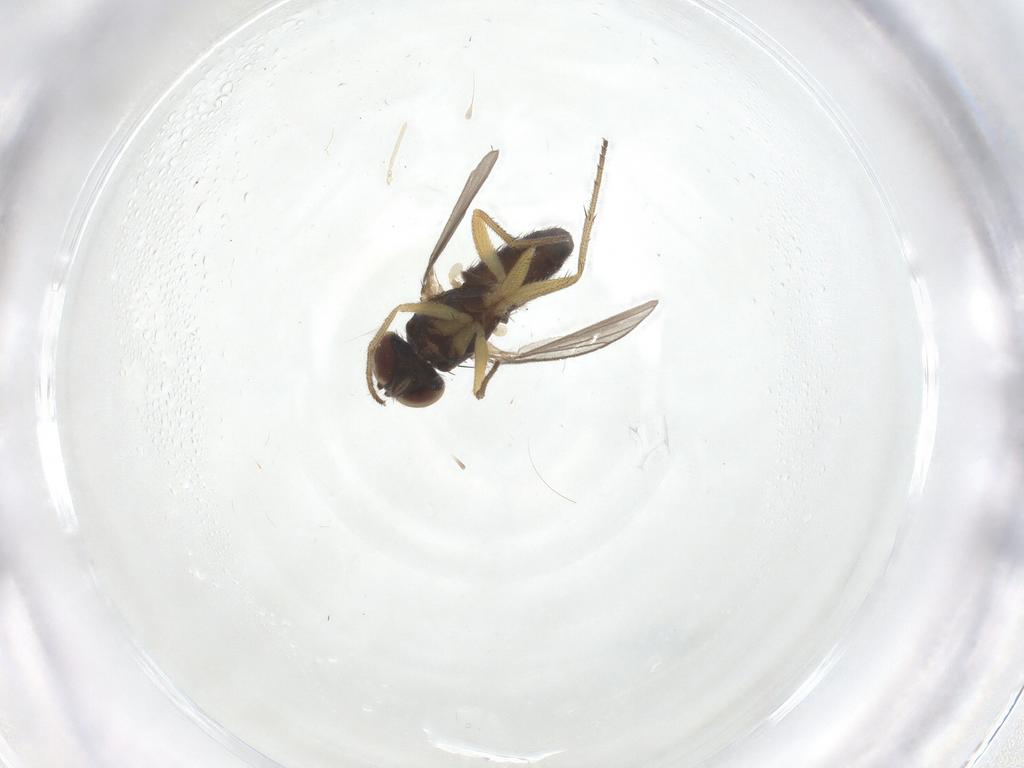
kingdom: Animalia
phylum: Arthropoda
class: Insecta
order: Diptera
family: Dolichopodidae
